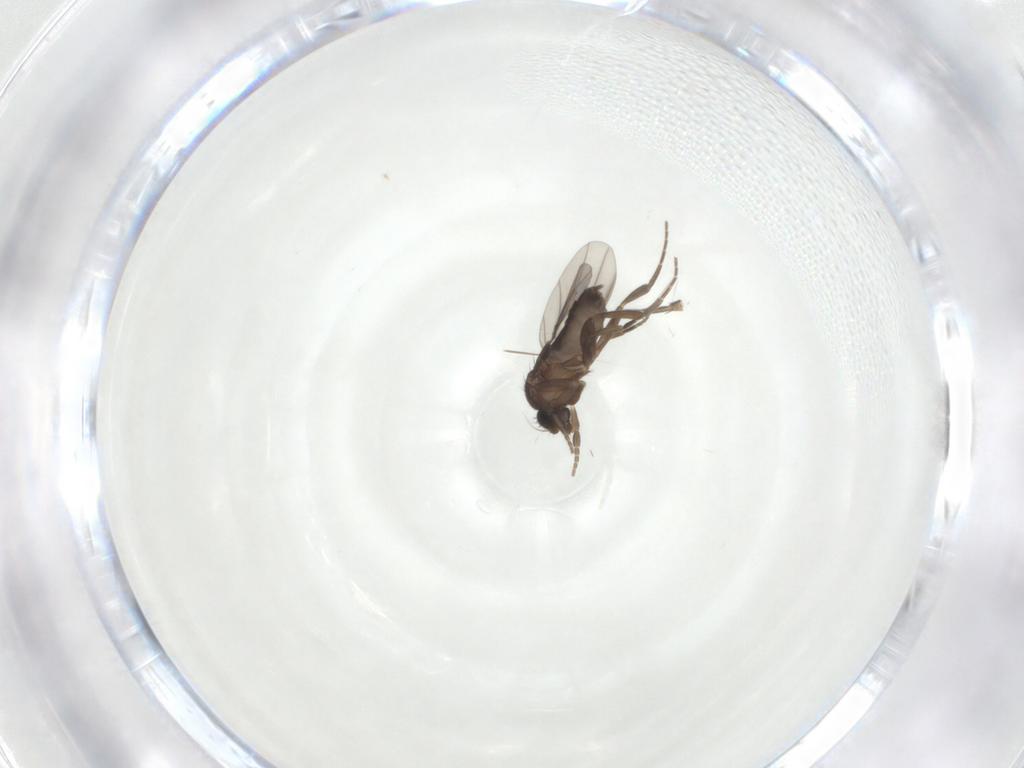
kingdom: Animalia
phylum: Arthropoda
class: Insecta
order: Diptera
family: Phoridae
